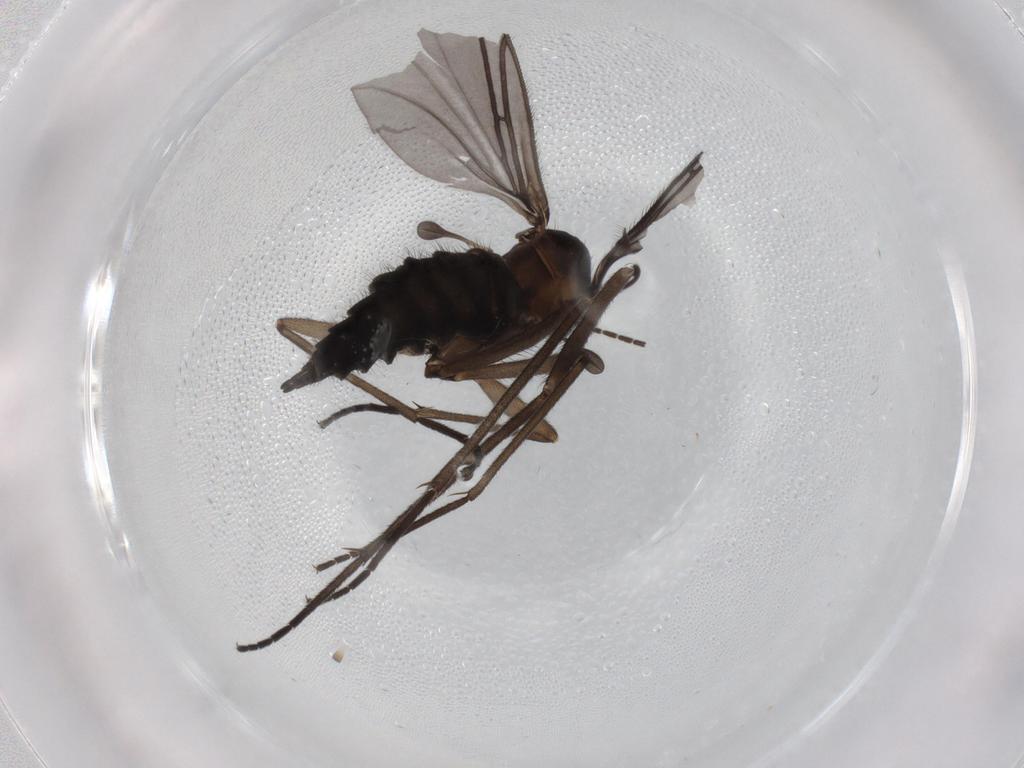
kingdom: Animalia
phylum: Arthropoda
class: Insecta
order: Diptera
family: Sciaridae
